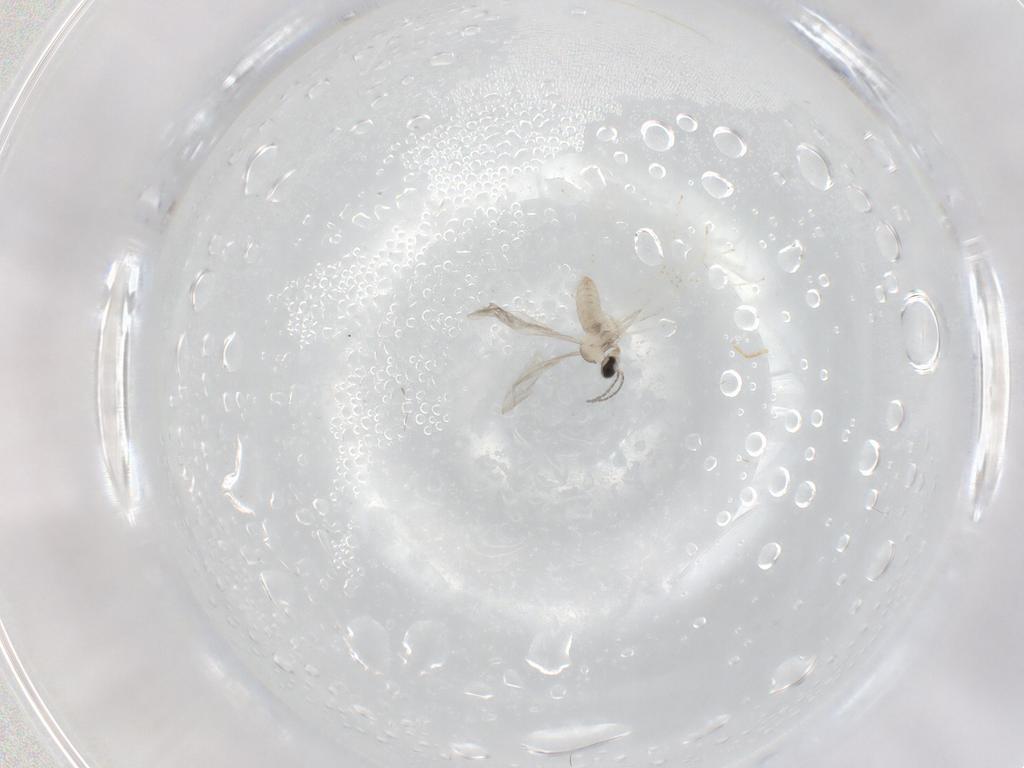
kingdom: Animalia
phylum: Arthropoda
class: Insecta
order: Diptera
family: Cecidomyiidae
